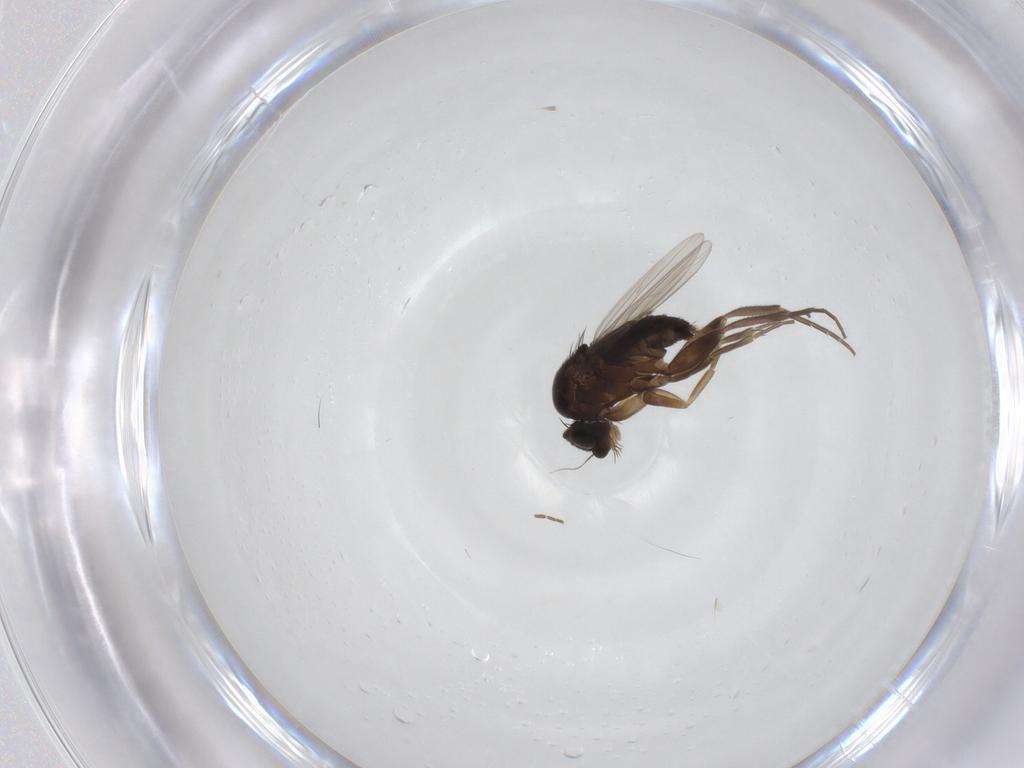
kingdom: Animalia
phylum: Arthropoda
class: Insecta
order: Diptera
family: Phoridae
